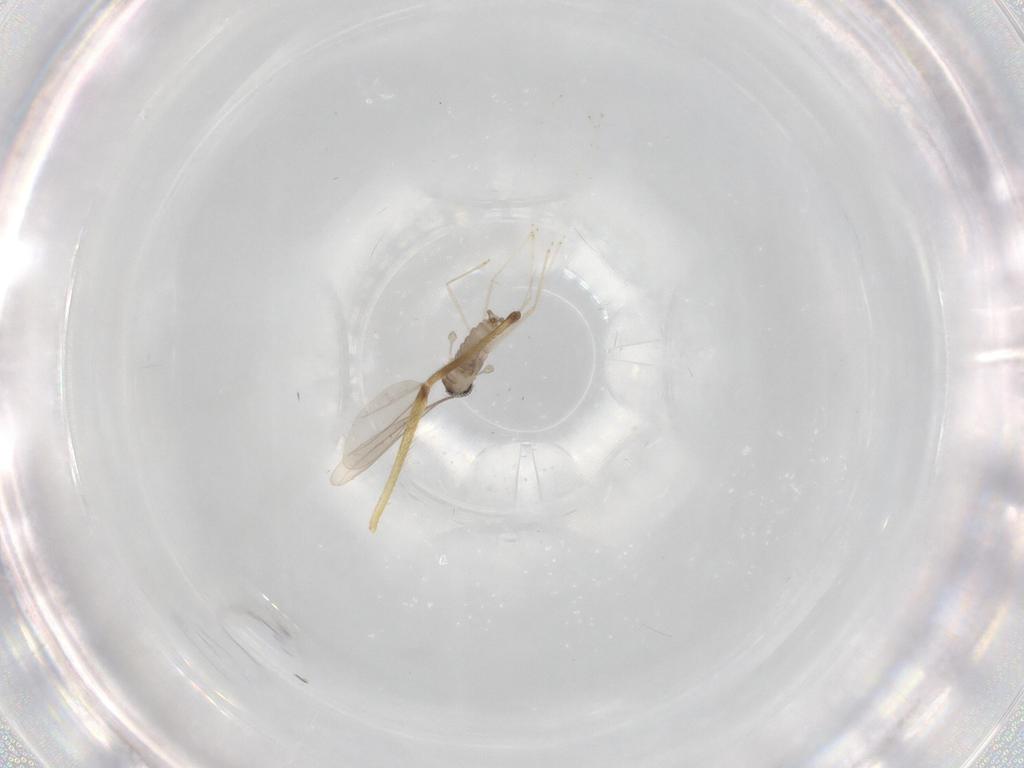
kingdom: Animalia
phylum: Arthropoda
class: Insecta
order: Diptera
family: Cecidomyiidae
